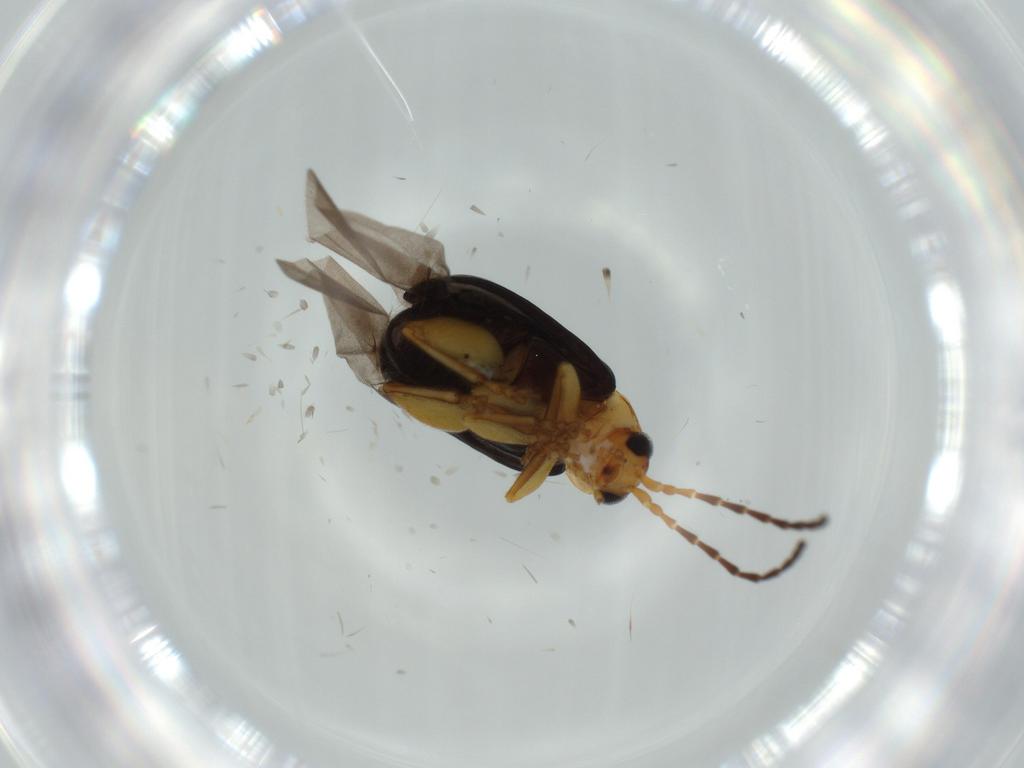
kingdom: Animalia
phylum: Arthropoda
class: Insecta
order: Coleoptera
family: Chrysomelidae
